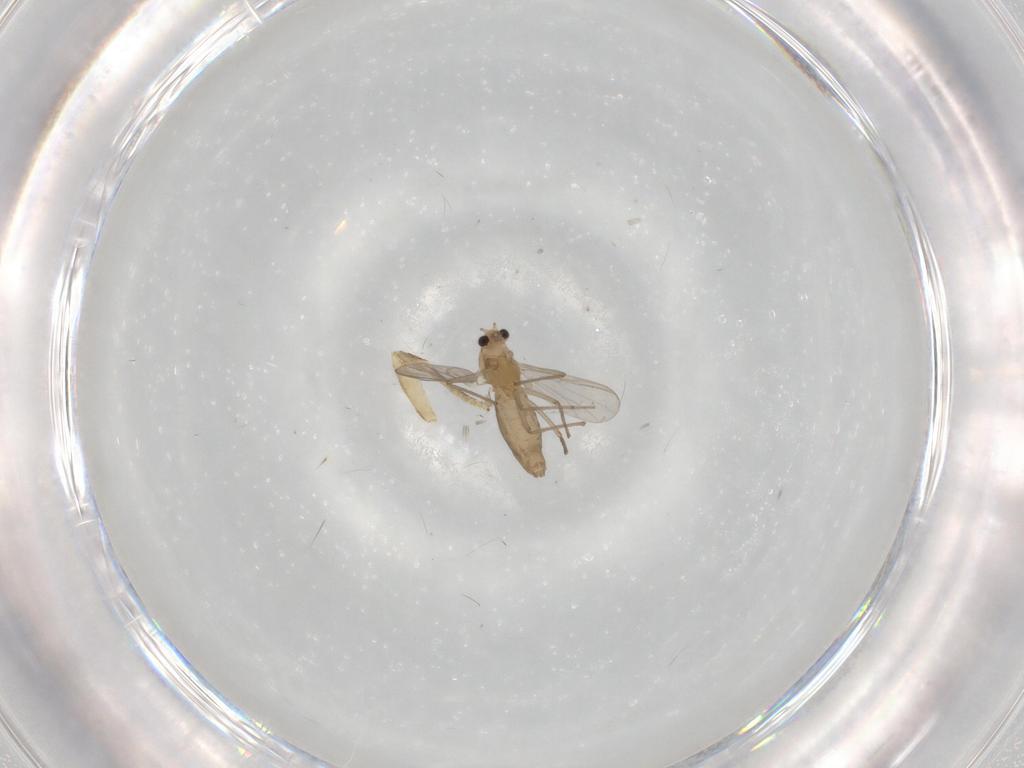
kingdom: Animalia
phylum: Arthropoda
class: Insecta
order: Diptera
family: Chironomidae
